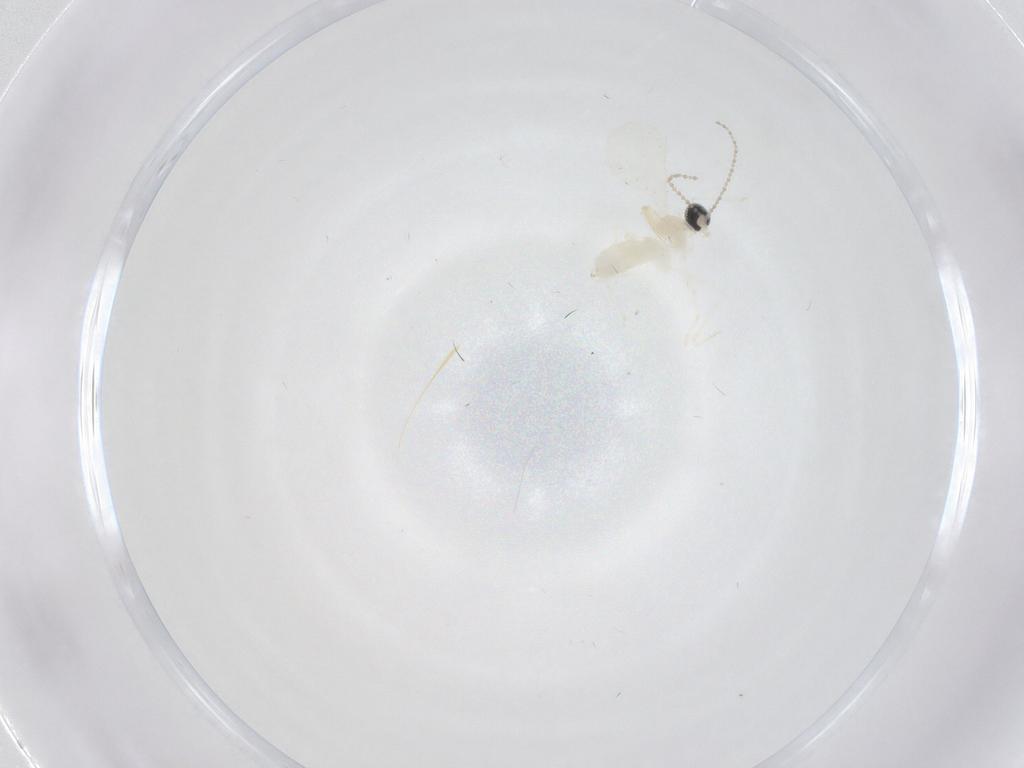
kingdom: Animalia
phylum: Arthropoda
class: Insecta
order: Diptera
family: Cecidomyiidae
